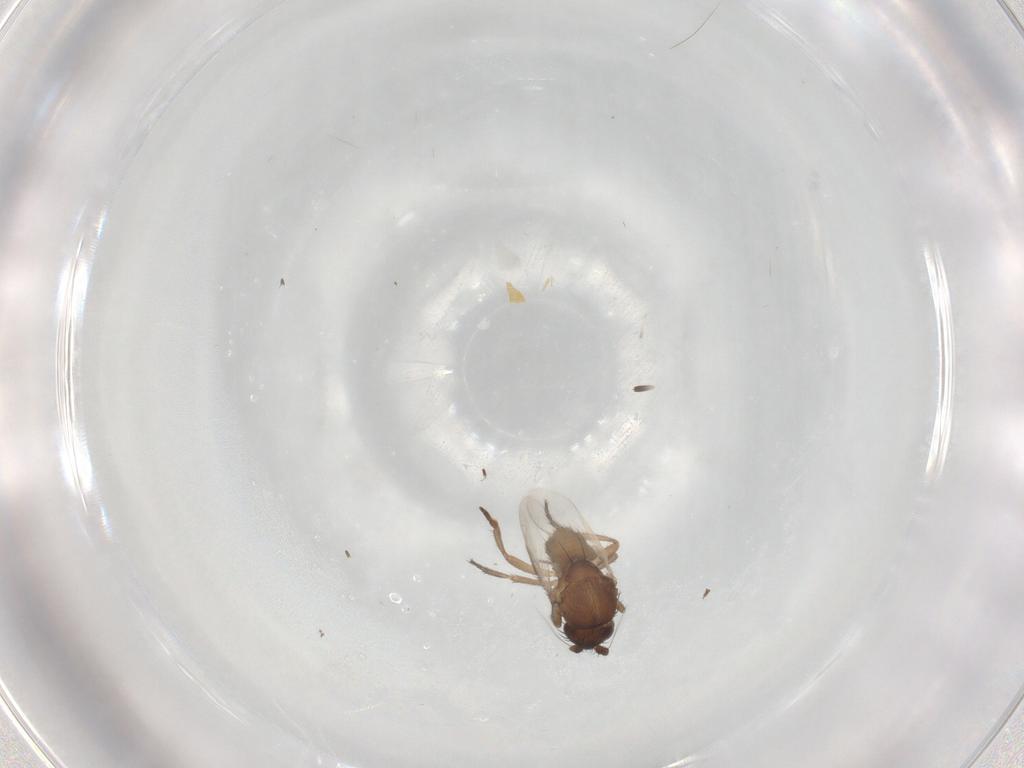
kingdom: Animalia
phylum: Arthropoda
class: Insecta
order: Diptera
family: Sphaeroceridae
